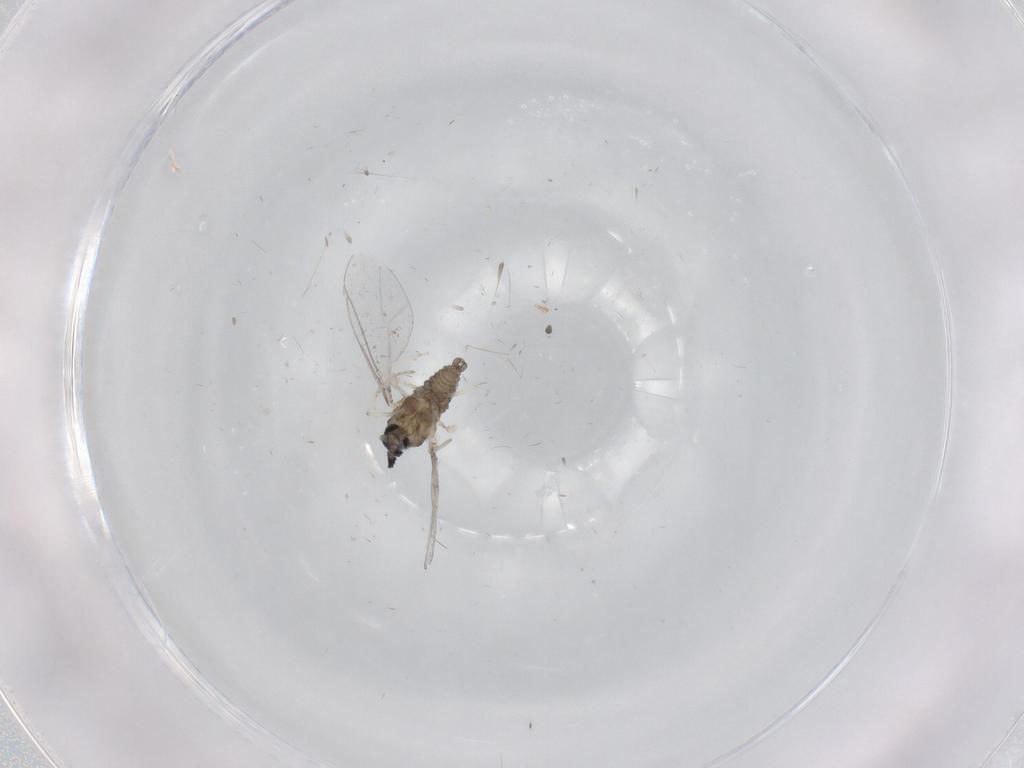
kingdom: Animalia
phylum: Arthropoda
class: Insecta
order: Diptera
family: Cecidomyiidae
